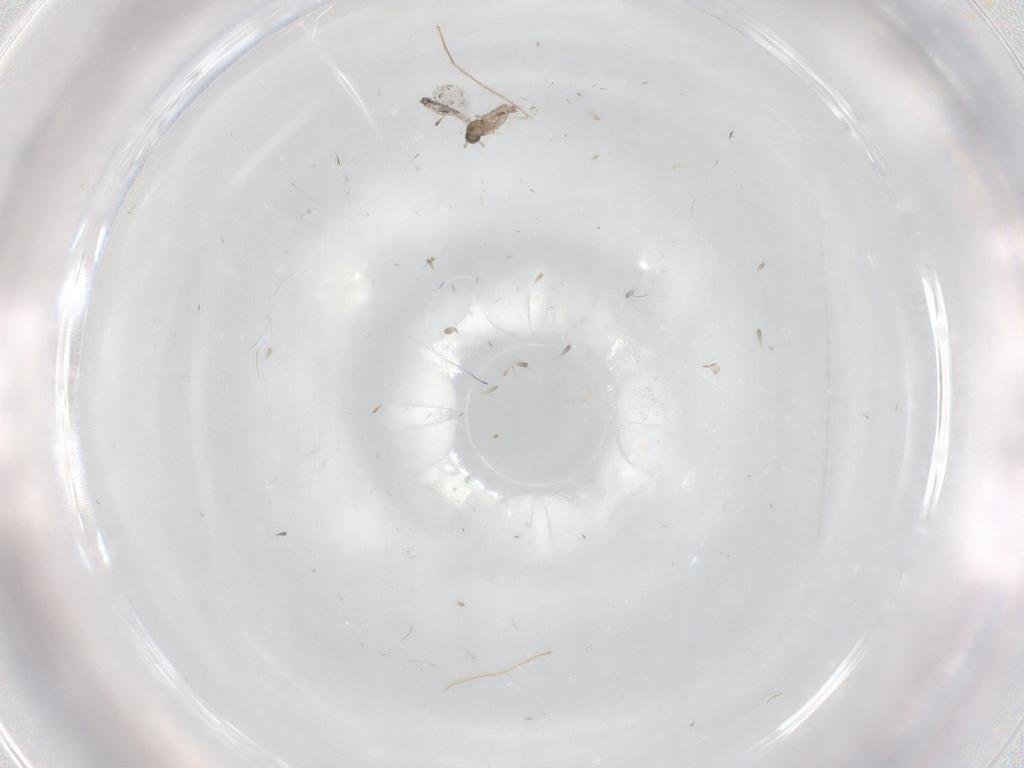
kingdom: Animalia
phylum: Arthropoda
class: Insecta
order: Diptera
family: Cecidomyiidae
